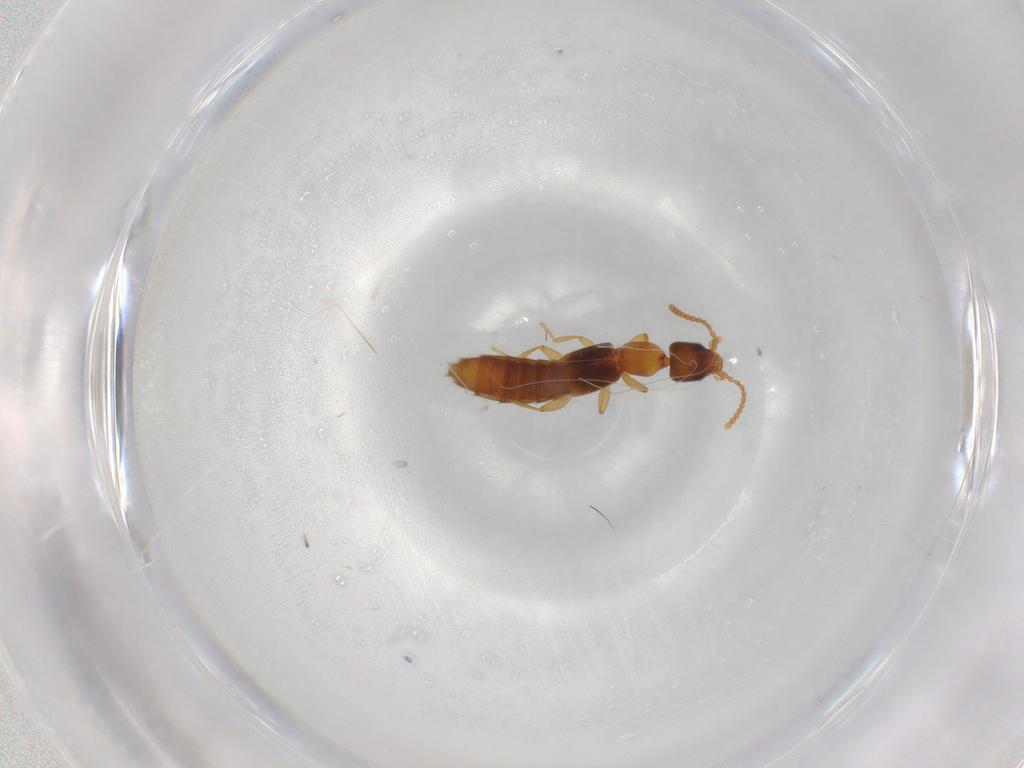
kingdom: Animalia
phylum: Arthropoda
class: Insecta
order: Coleoptera
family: Staphylinidae
